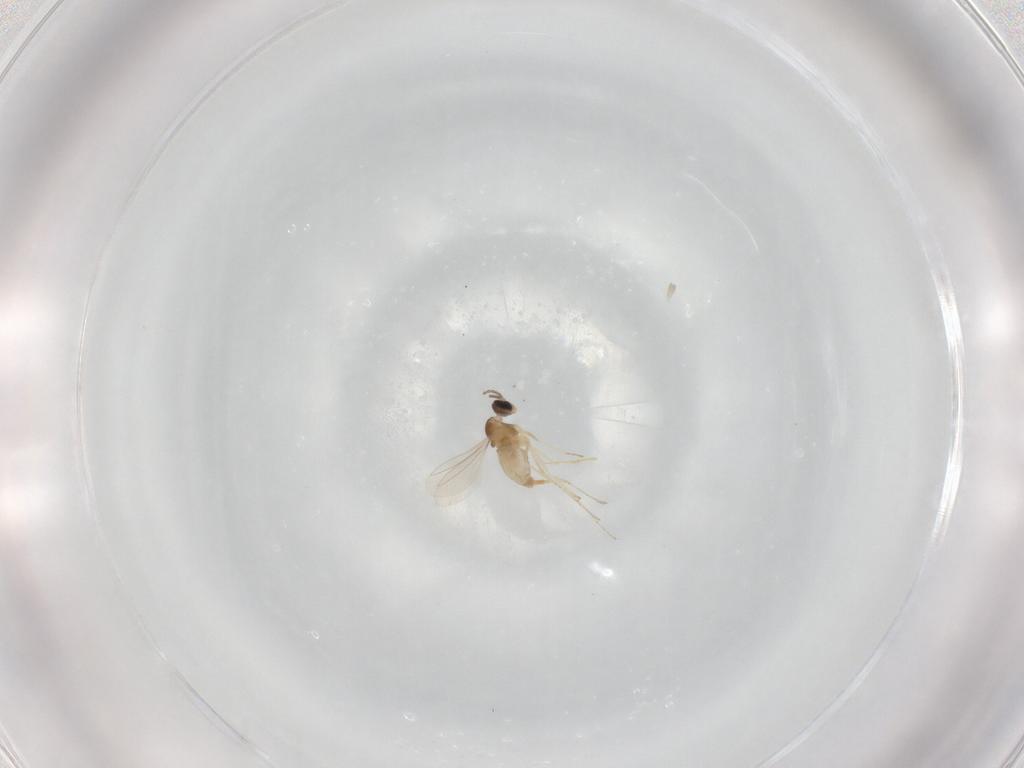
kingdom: Animalia
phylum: Arthropoda
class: Insecta
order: Diptera
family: Cecidomyiidae
